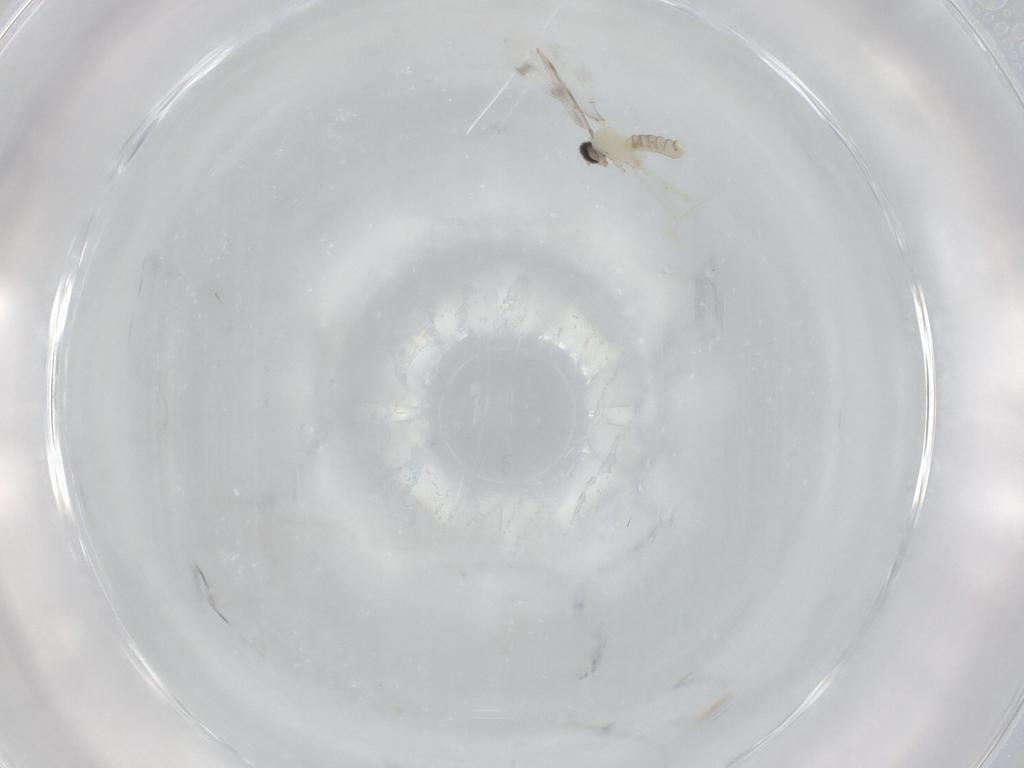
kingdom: Animalia
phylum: Arthropoda
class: Insecta
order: Diptera
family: Cecidomyiidae
